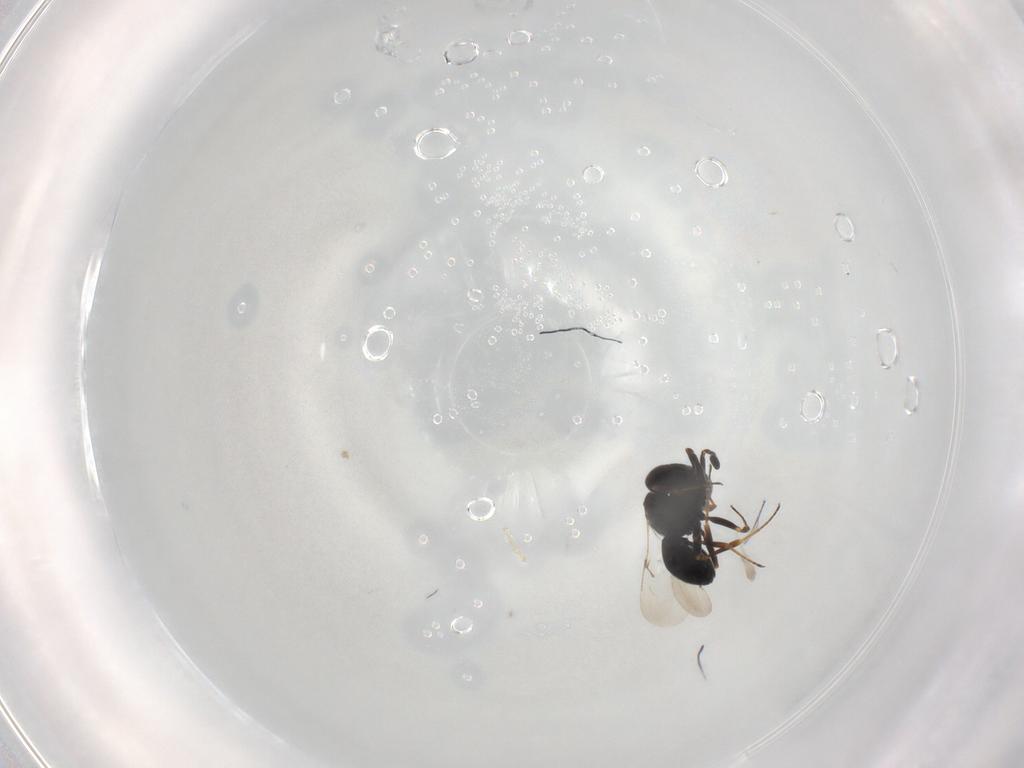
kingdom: Animalia
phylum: Arthropoda
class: Insecta
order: Hymenoptera
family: Scelionidae
